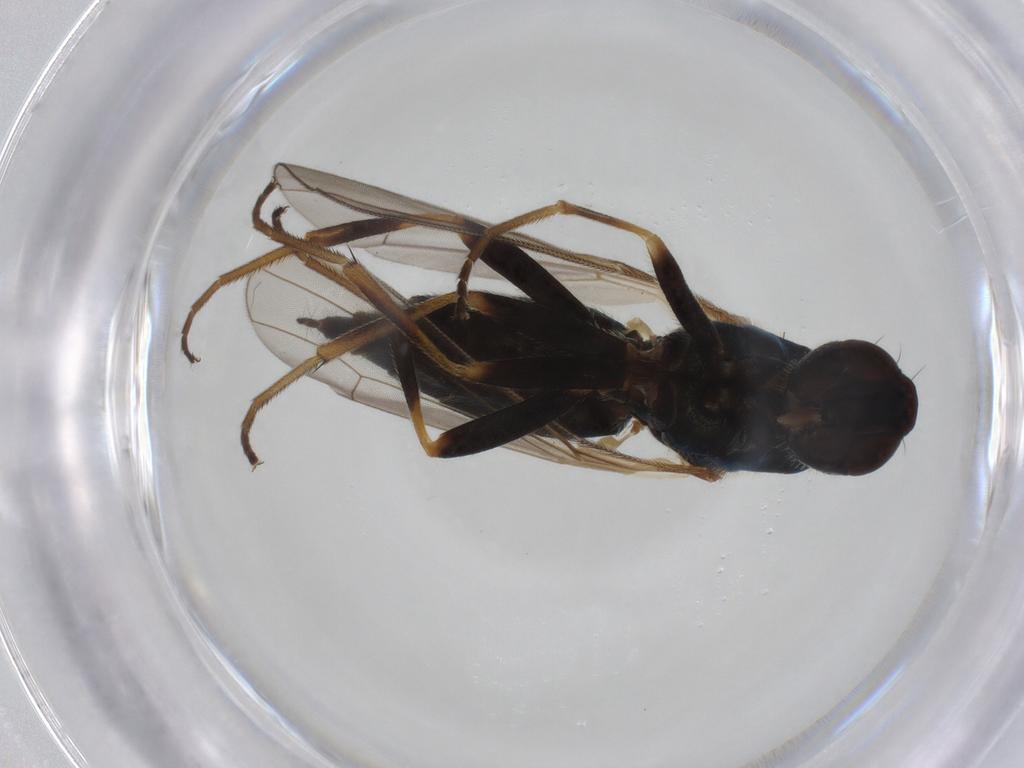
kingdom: Animalia
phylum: Arthropoda
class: Insecta
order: Diptera
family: Ceratopogonidae
